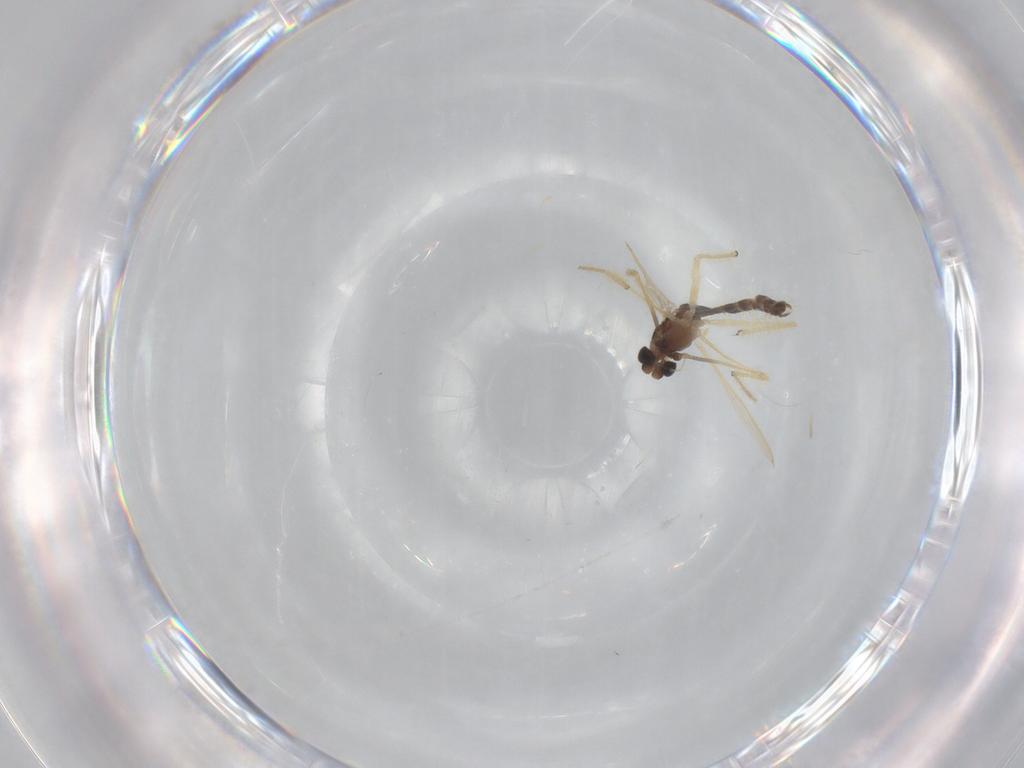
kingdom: Animalia
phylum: Arthropoda
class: Insecta
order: Diptera
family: Chironomidae
